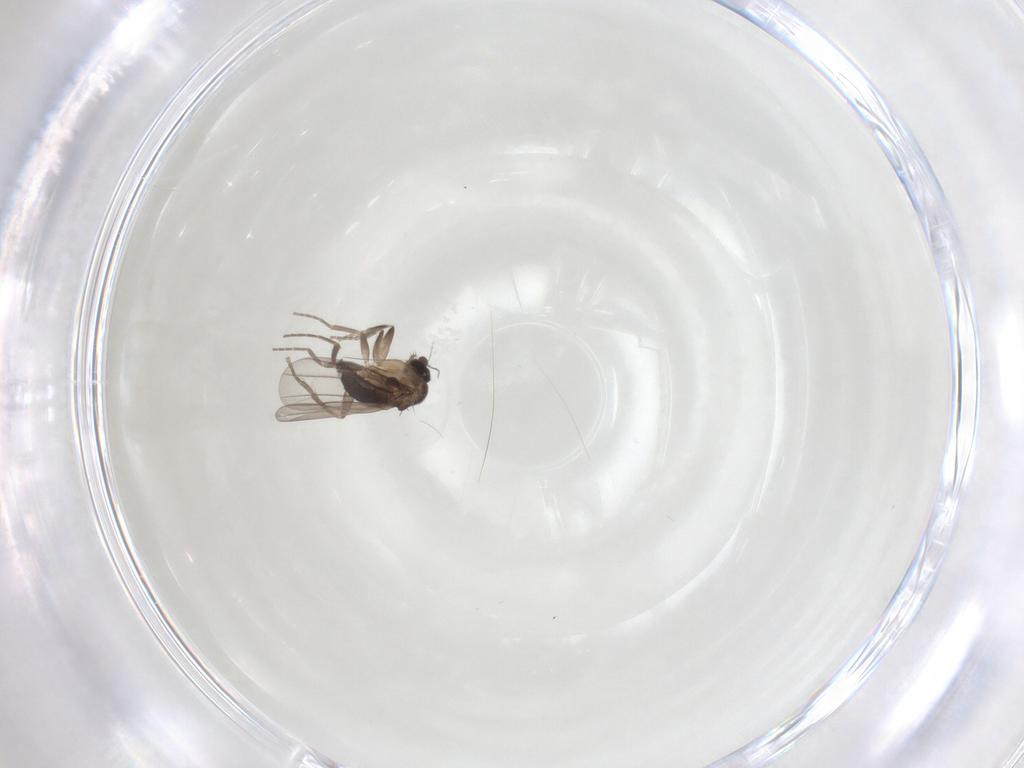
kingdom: Animalia
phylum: Arthropoda
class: Insecta
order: Diptera
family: Phoridae
